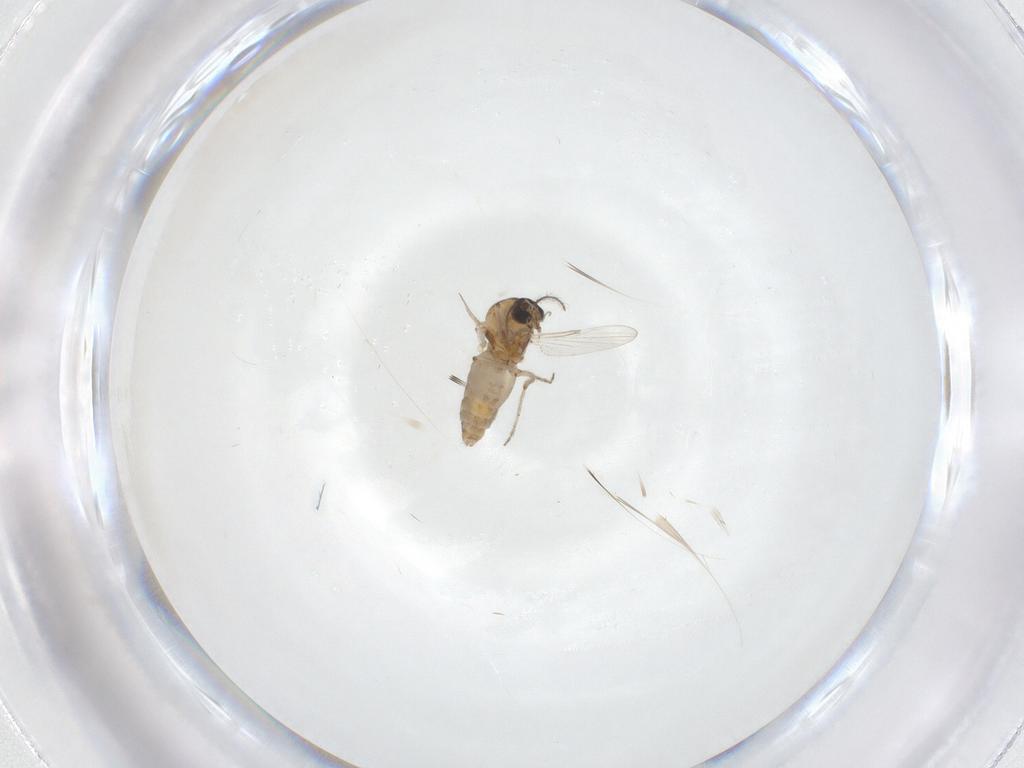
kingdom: Animalia
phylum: Arthropoda
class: Insecta
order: Diptera
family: Ceratopogonidae
